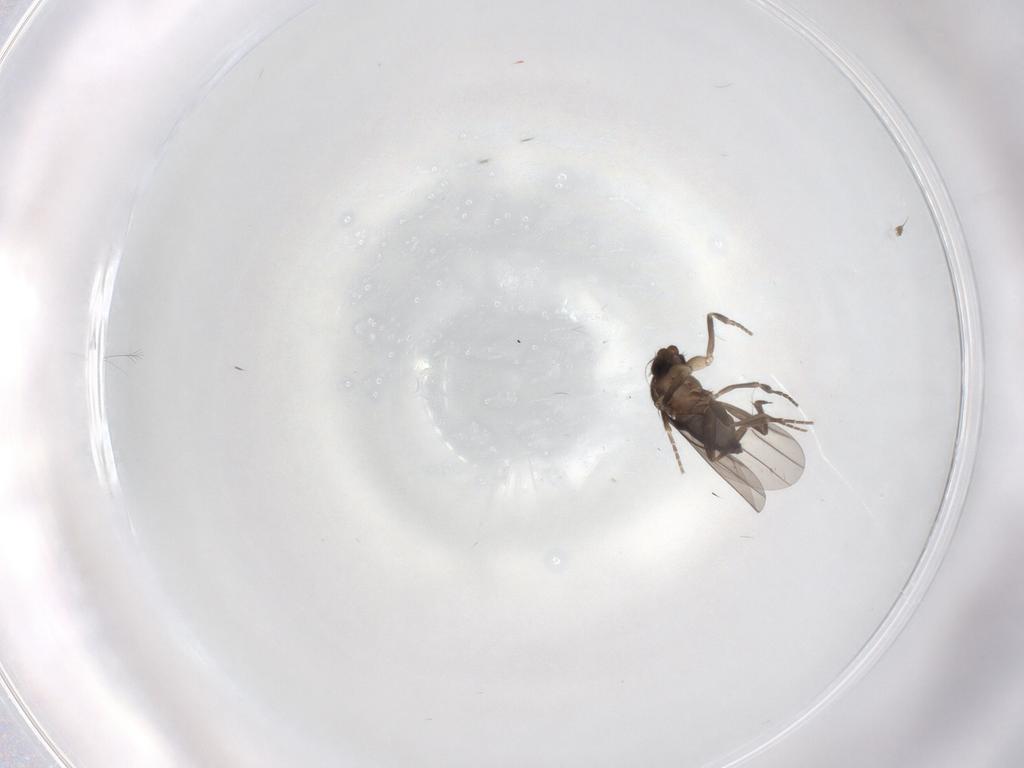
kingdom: Animalia
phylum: Arthropoda
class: Insecta
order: Diptera
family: Phoridae
